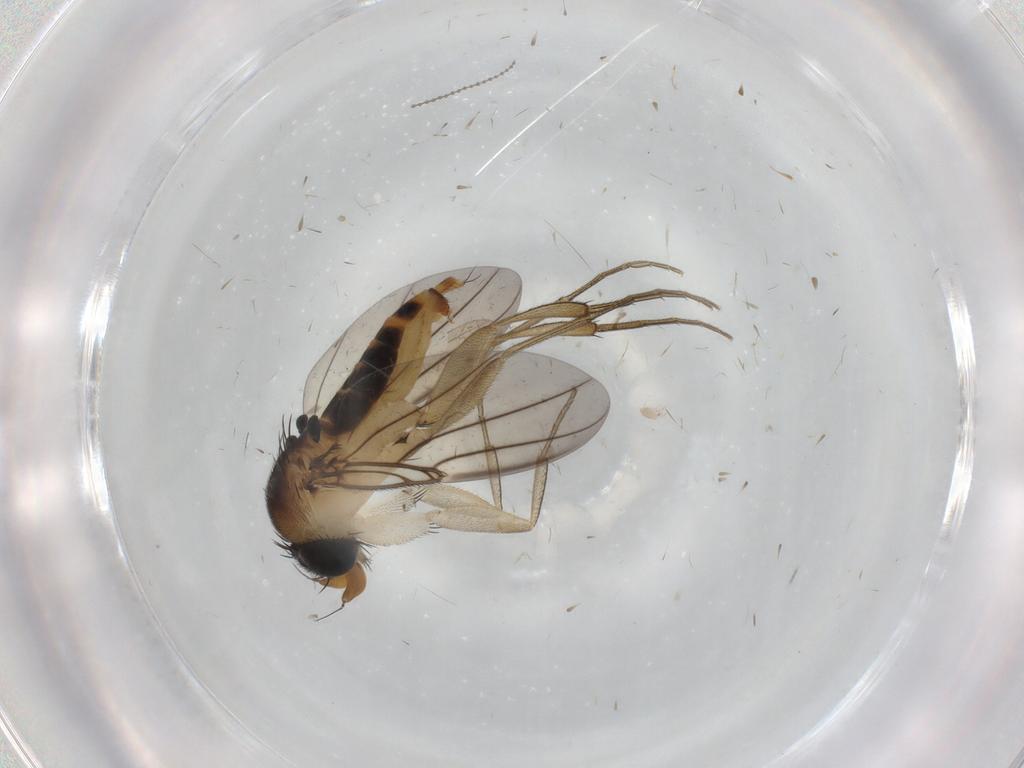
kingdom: Animalia
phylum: Arthropoda
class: Insecta
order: Diptera
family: Phoridae
